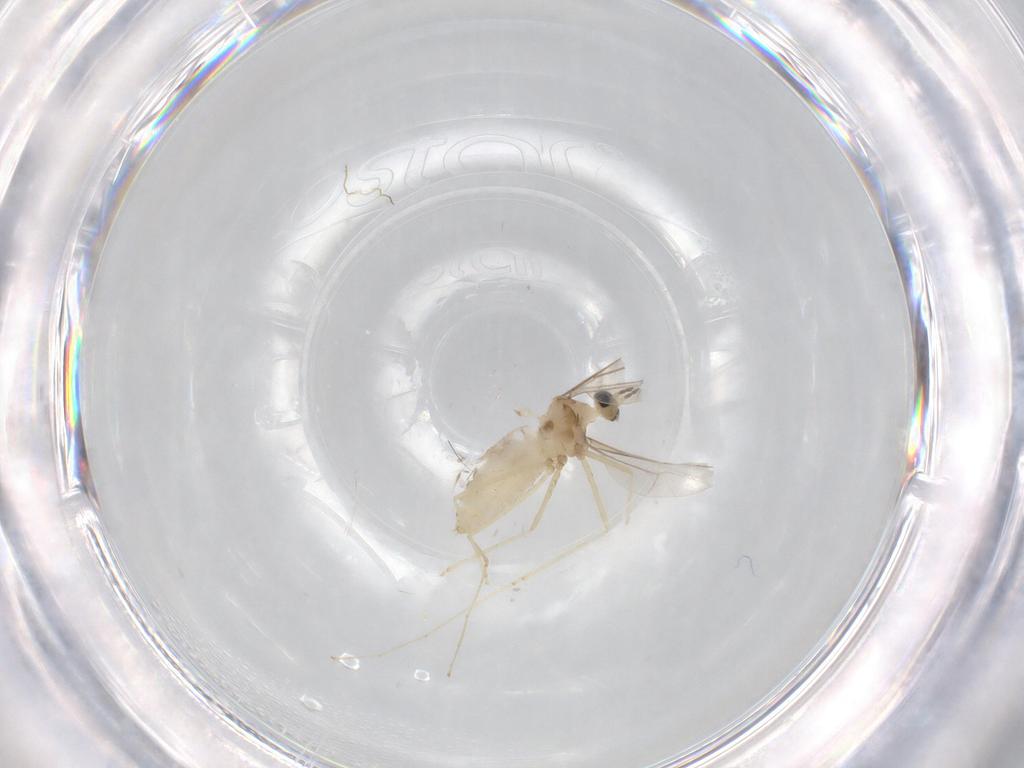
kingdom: Animalia
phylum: Arthropoda
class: Insecta
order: Diptera
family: Cecidomyiidae
